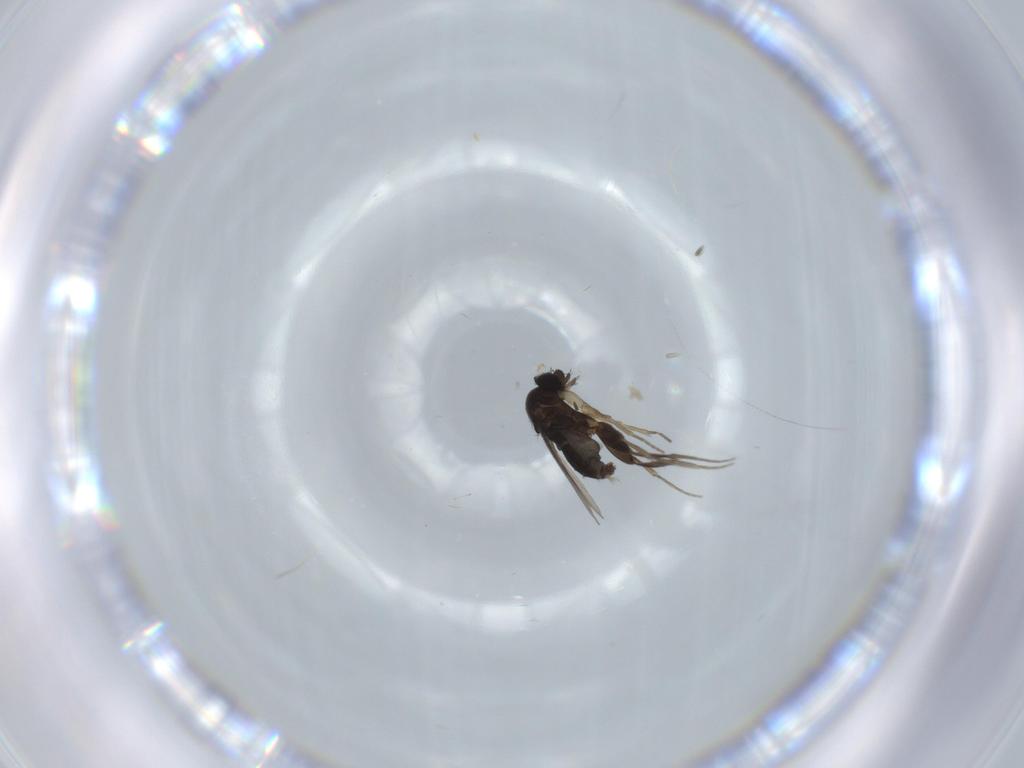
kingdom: Animalia
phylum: Arthropoda
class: Insecta
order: Diptera
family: Phoridae
